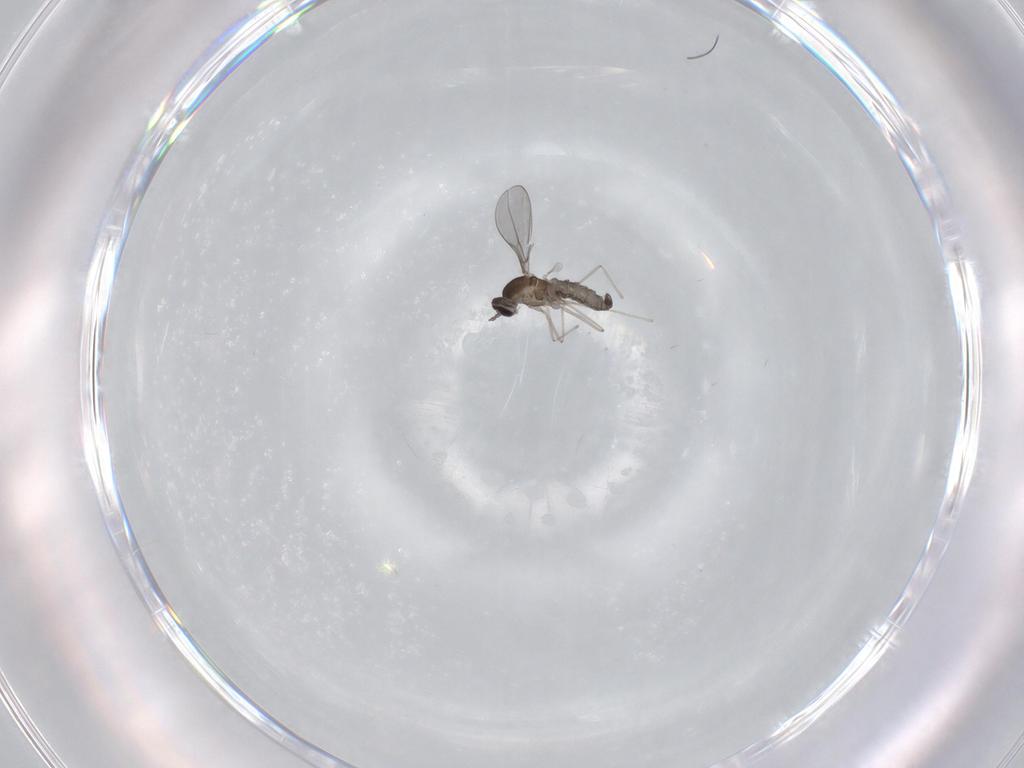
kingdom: Animalia
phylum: Arthropoda
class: Insecta
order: Diptera
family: Cecidomyiidae
